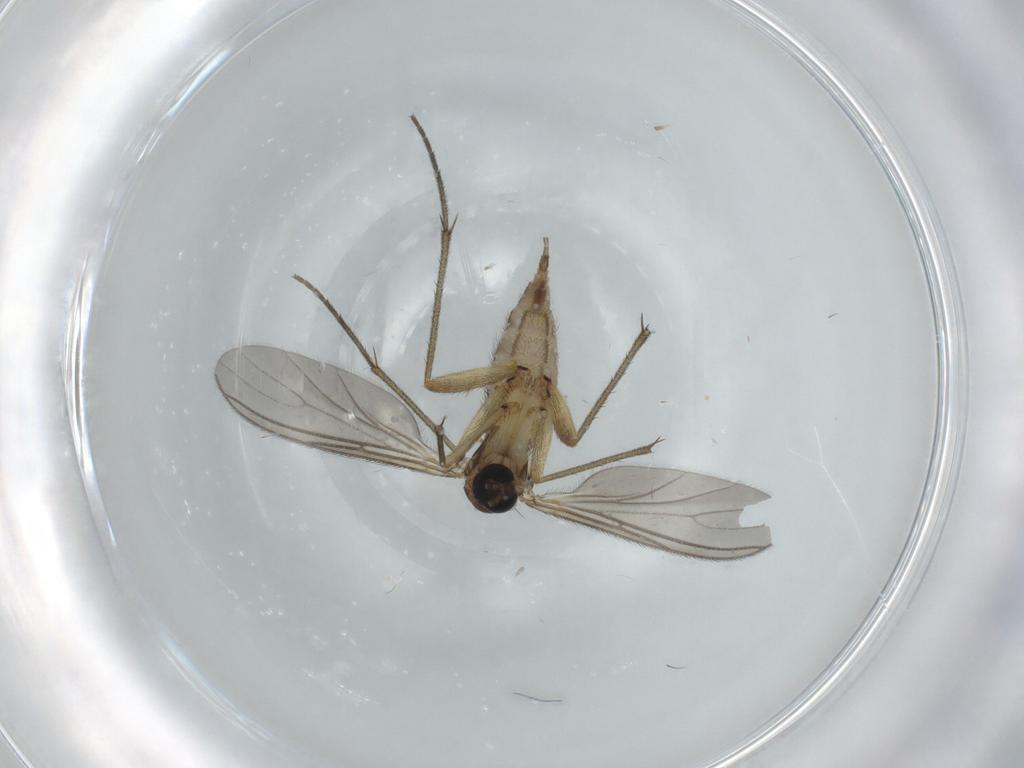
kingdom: Animalia
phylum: Arthropoda
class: Insecta
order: Diptera
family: Sciaridae
